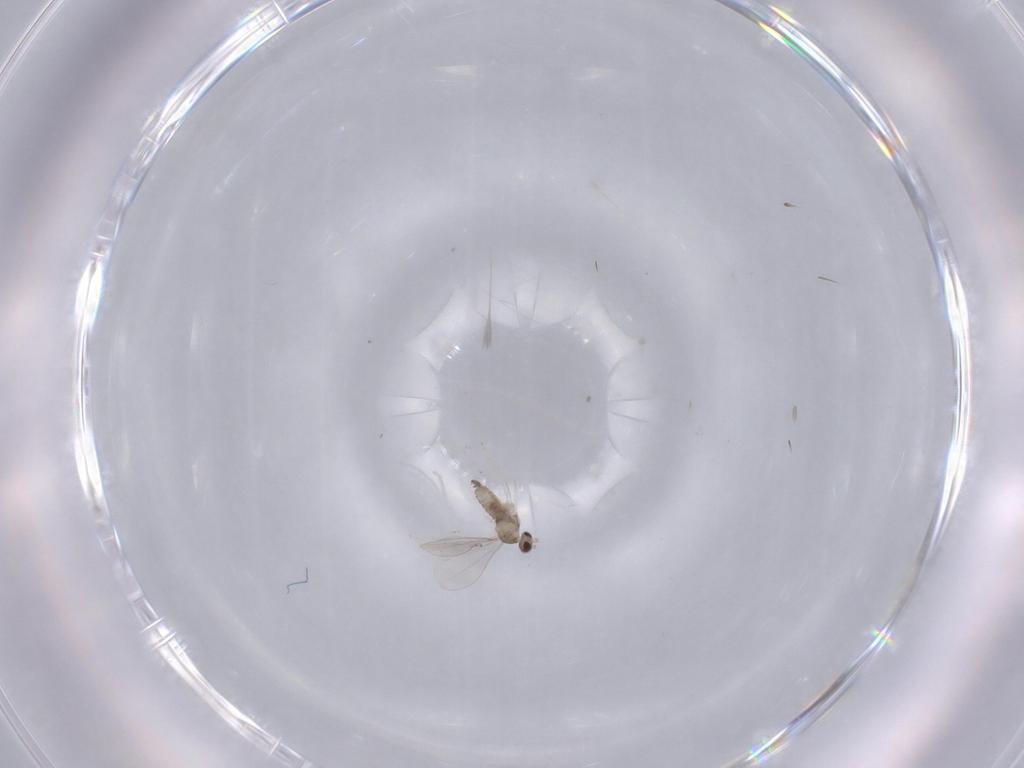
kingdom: Animalia
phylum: Arthropoda
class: Insecta
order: Diptera
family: Cecidomyiidae
